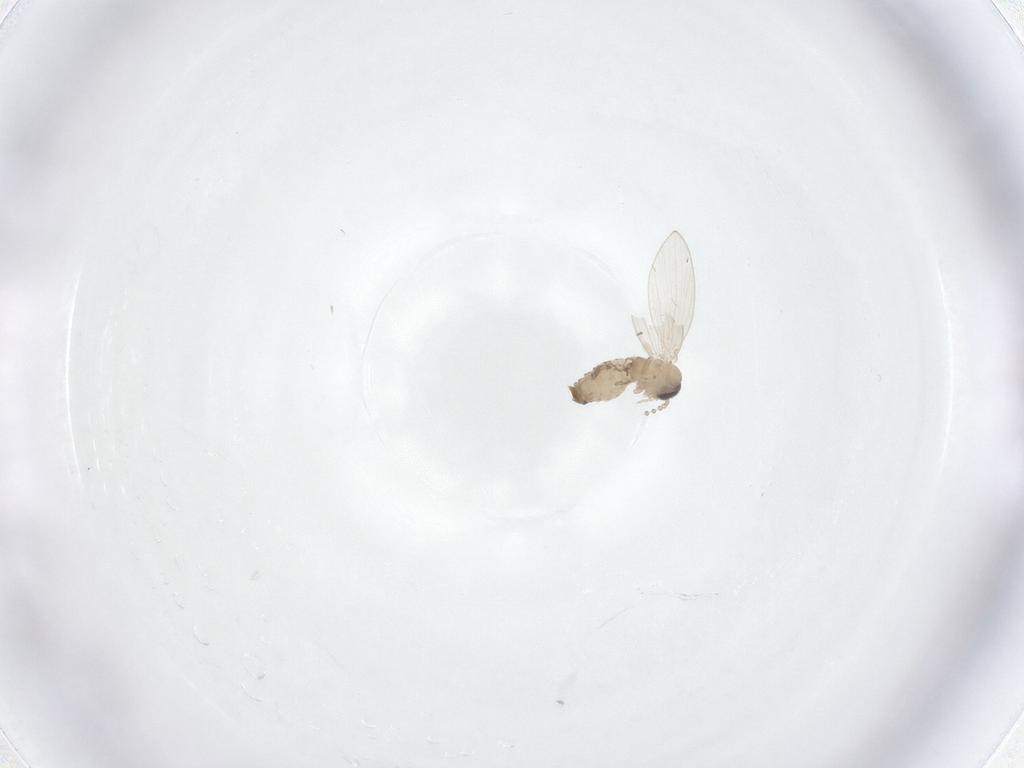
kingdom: Animalia
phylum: Arthropoda
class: Insecta
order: Diptera
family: Psychodidae
